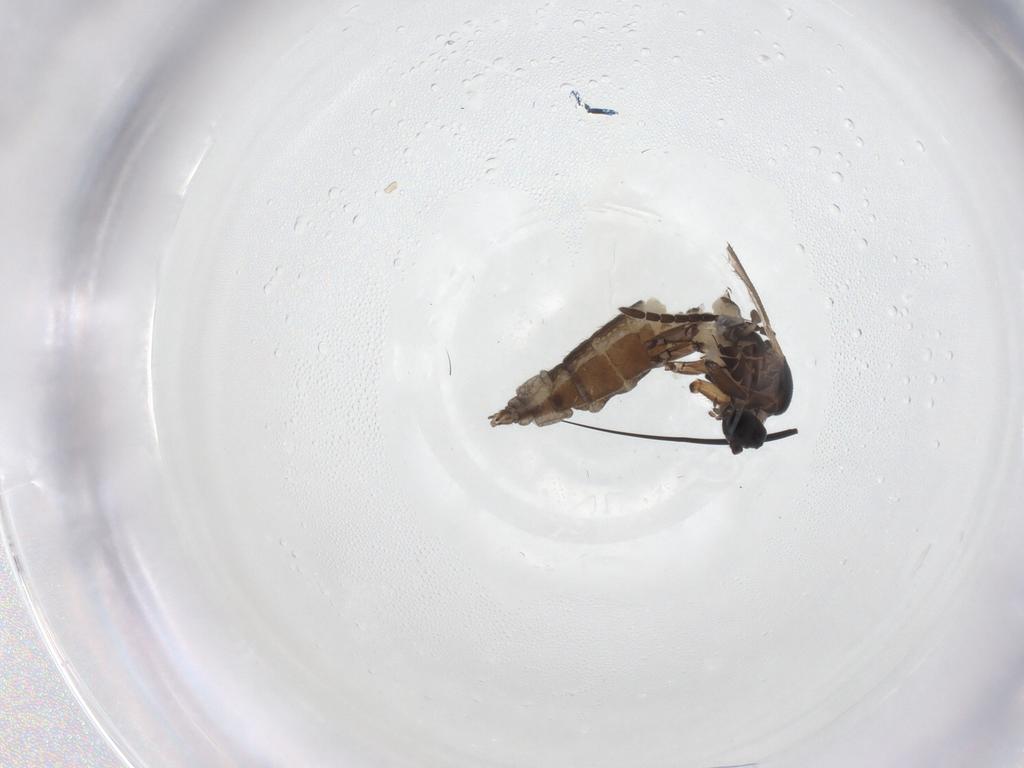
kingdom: Animalia
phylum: Arthropoda
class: Insecta
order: Diptera
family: Sciaridae
